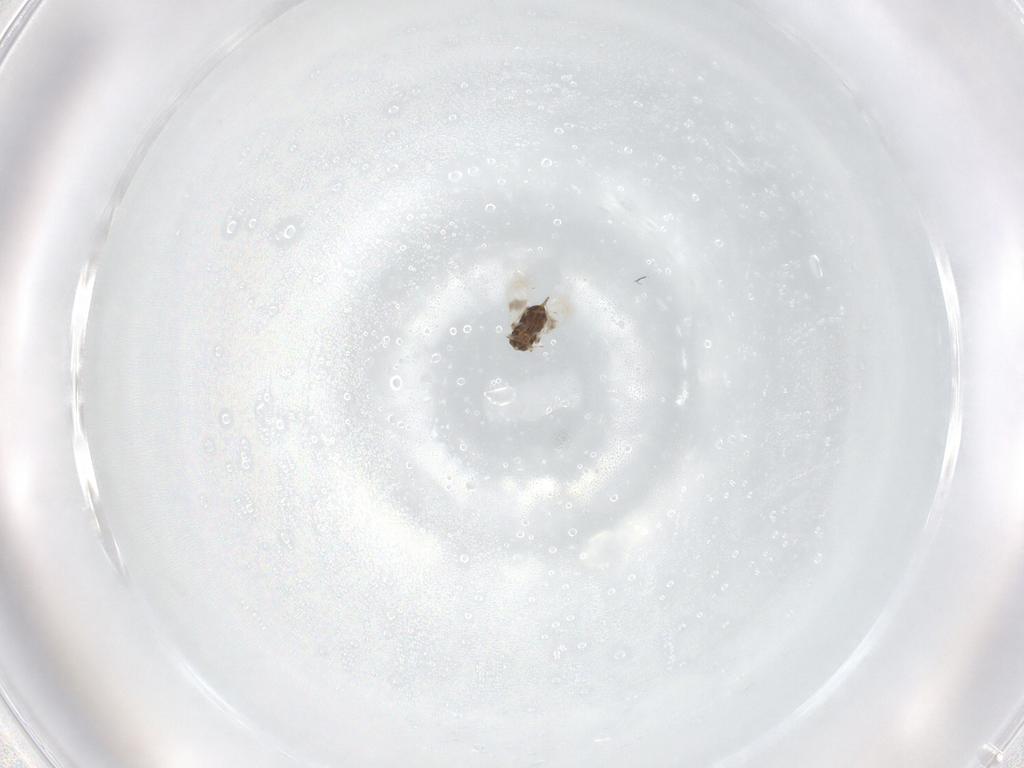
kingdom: Animalia
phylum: Arthropoda
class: Insecta
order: Hymenoptera
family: Azotidae
